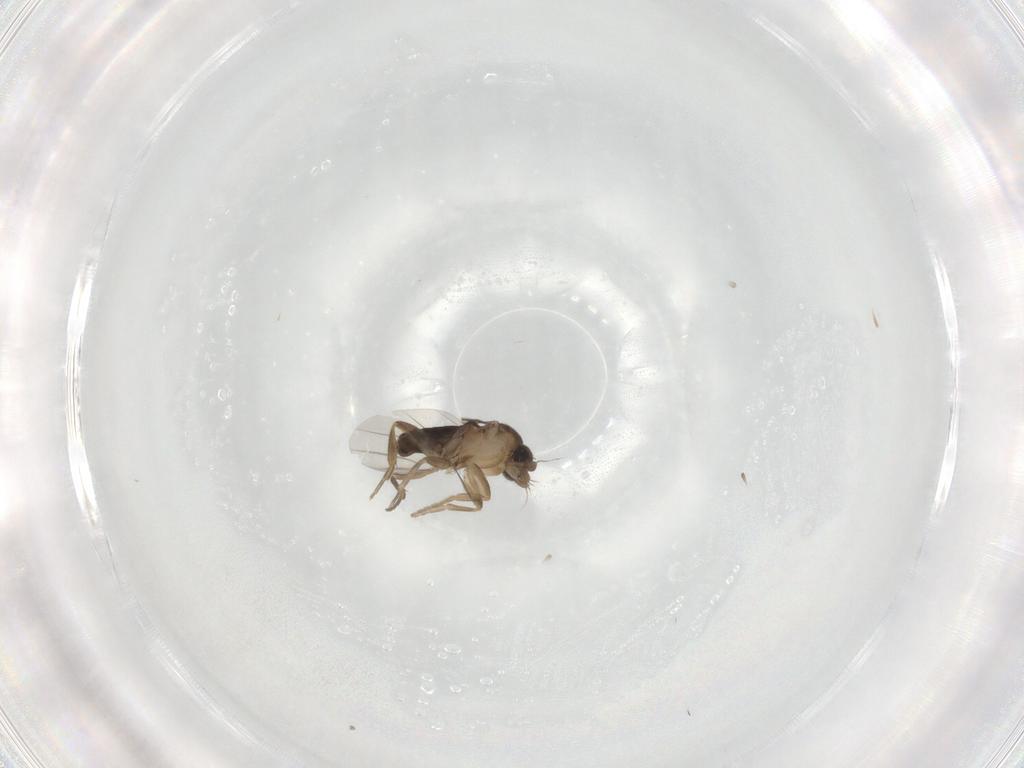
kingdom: Animalia
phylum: Arthropoda
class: Insecta
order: Diptera
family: Phoridae
